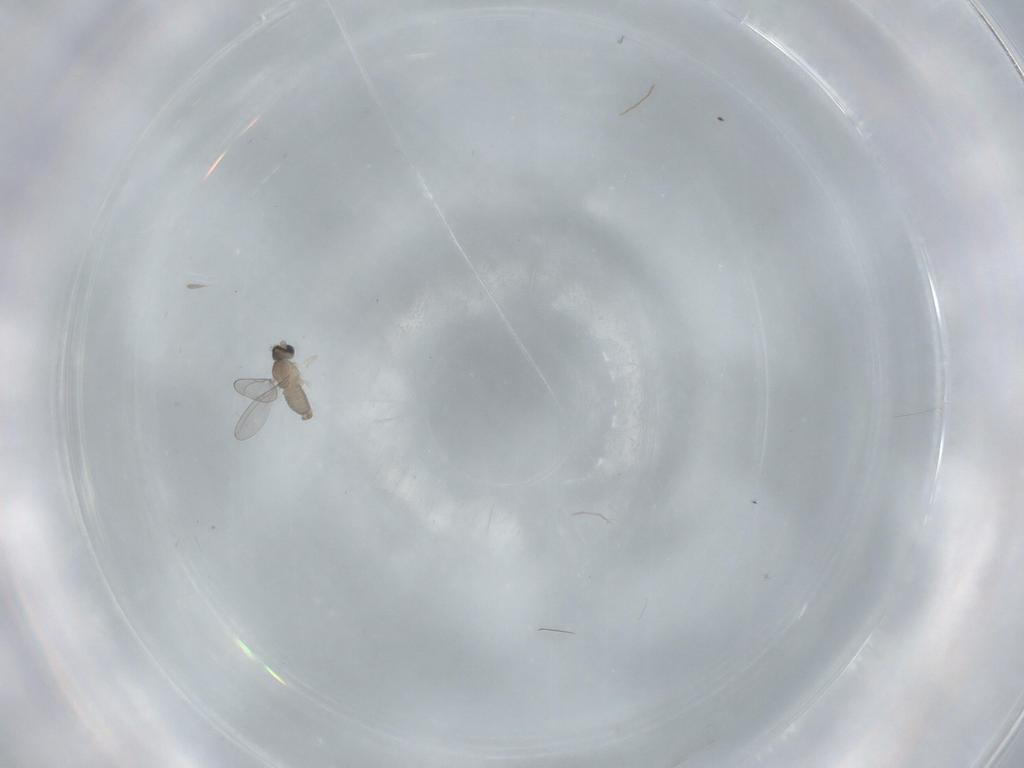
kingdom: Animalia
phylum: Arthropoda
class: Insecta
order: Diptera
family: Cecidomyiidae
